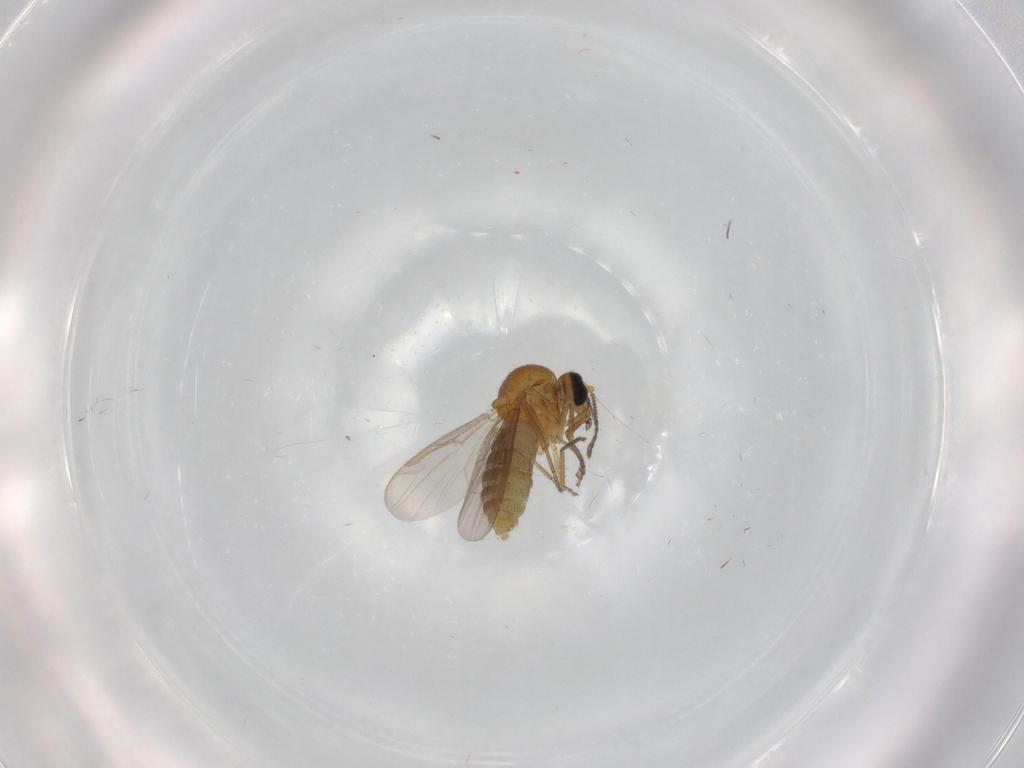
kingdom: Animalia
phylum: Arthropoda
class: Insecta
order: Diptera
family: Ceratopogonidae
